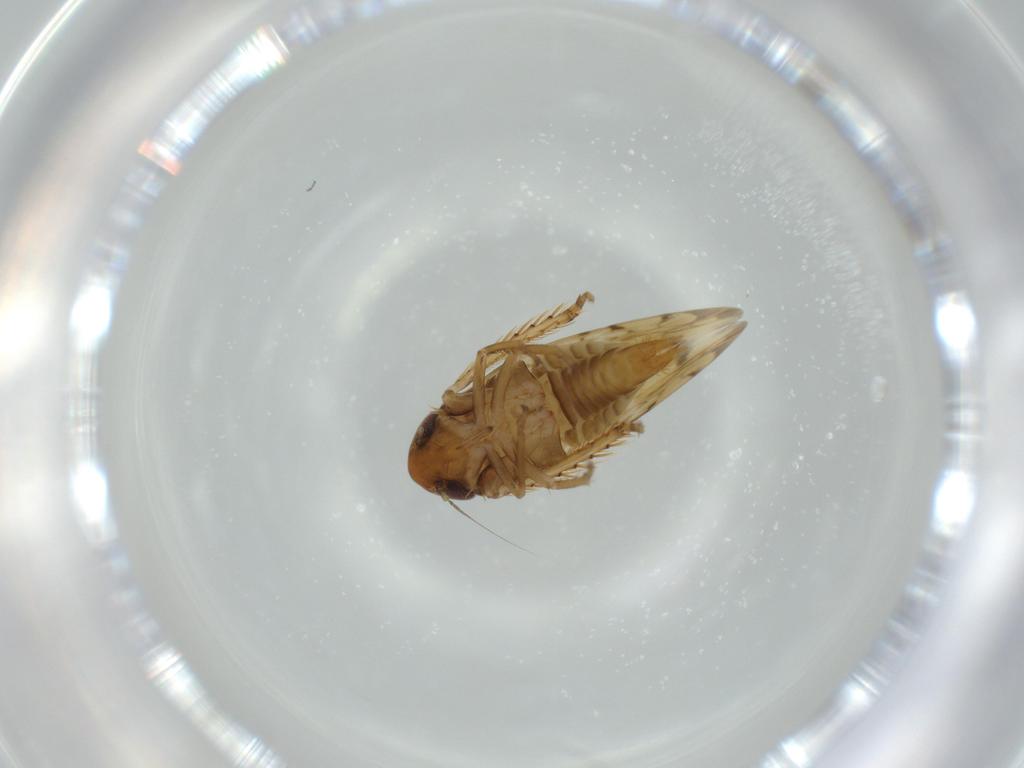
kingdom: Animalia
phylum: Arthropoda
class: Insecta
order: Hemiptera
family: Cicadellidae
